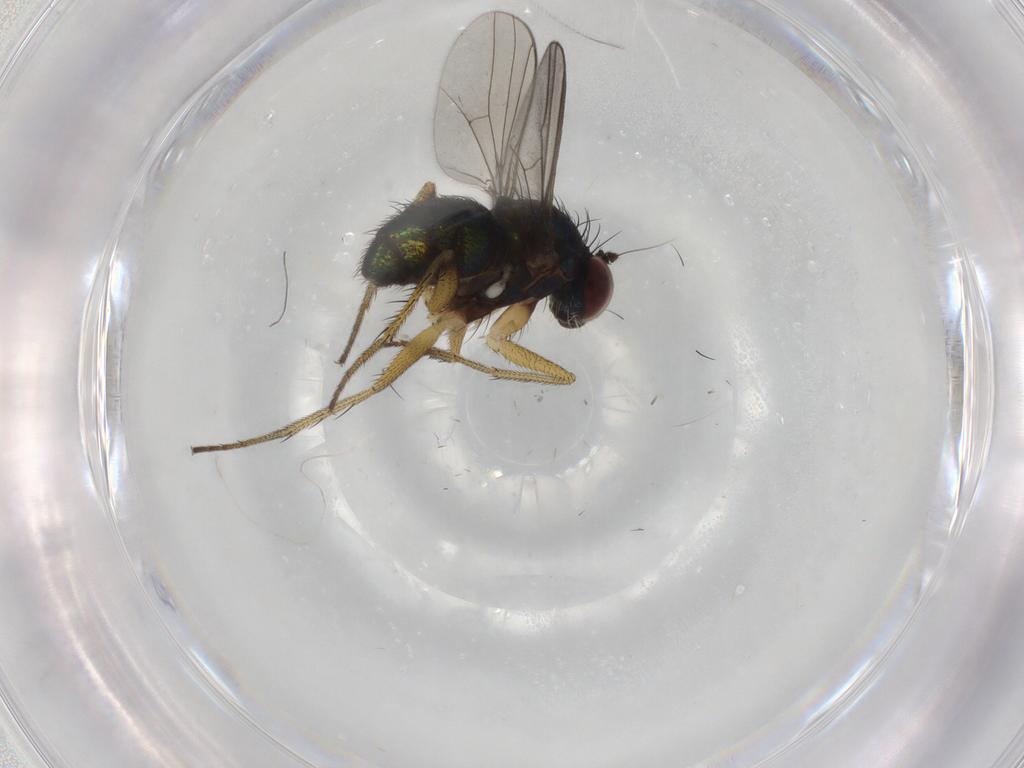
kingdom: Animalia
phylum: Arthropoda
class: Insecta
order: Diptera
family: Dolichopodidae
